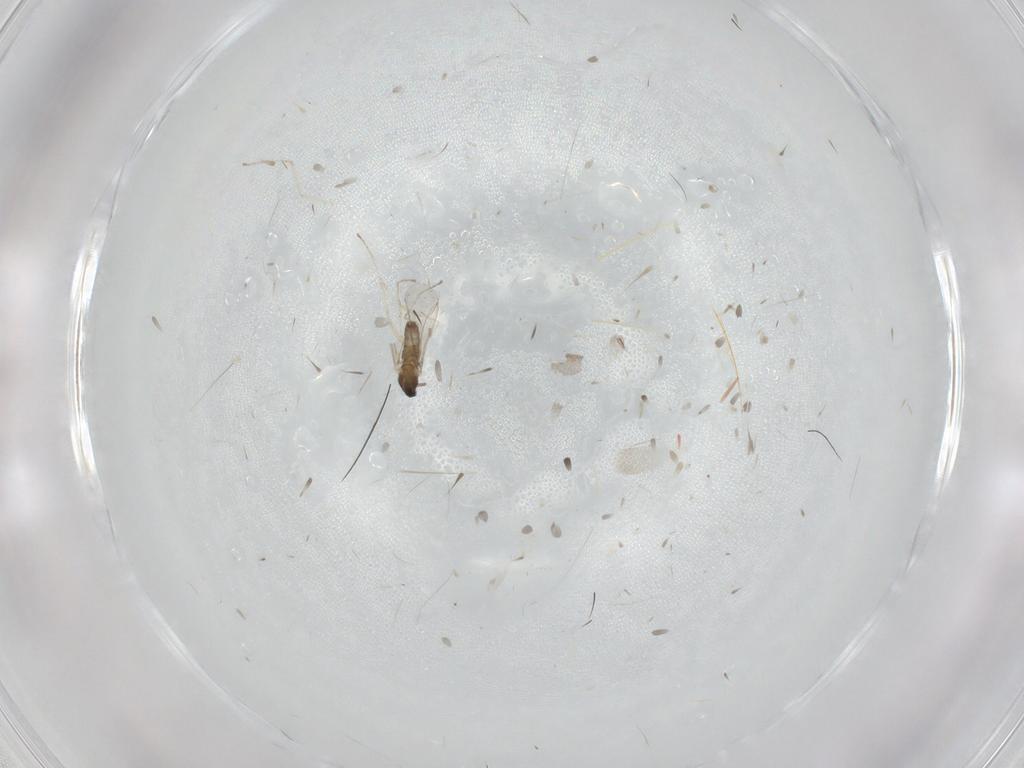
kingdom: Animalia
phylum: Arthropoda
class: Insecta
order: Diptera
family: Cecidomyiidae
